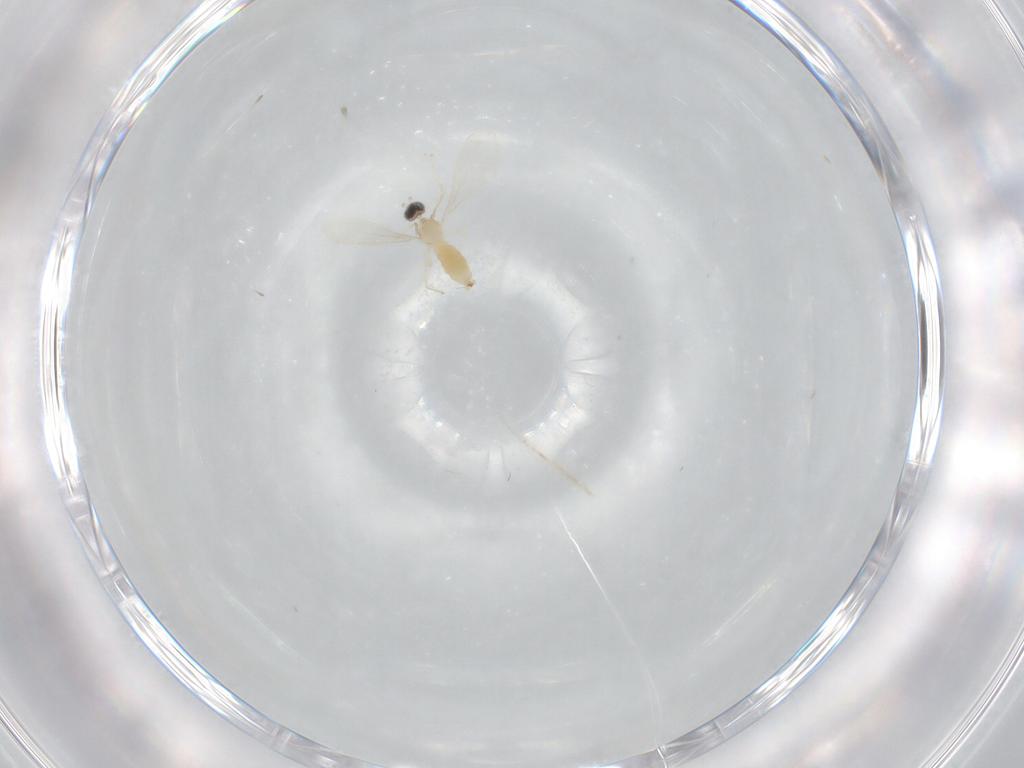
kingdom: Animalia
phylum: Arthropoda
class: Insecta
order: Diptera
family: Cecidomyiidae
